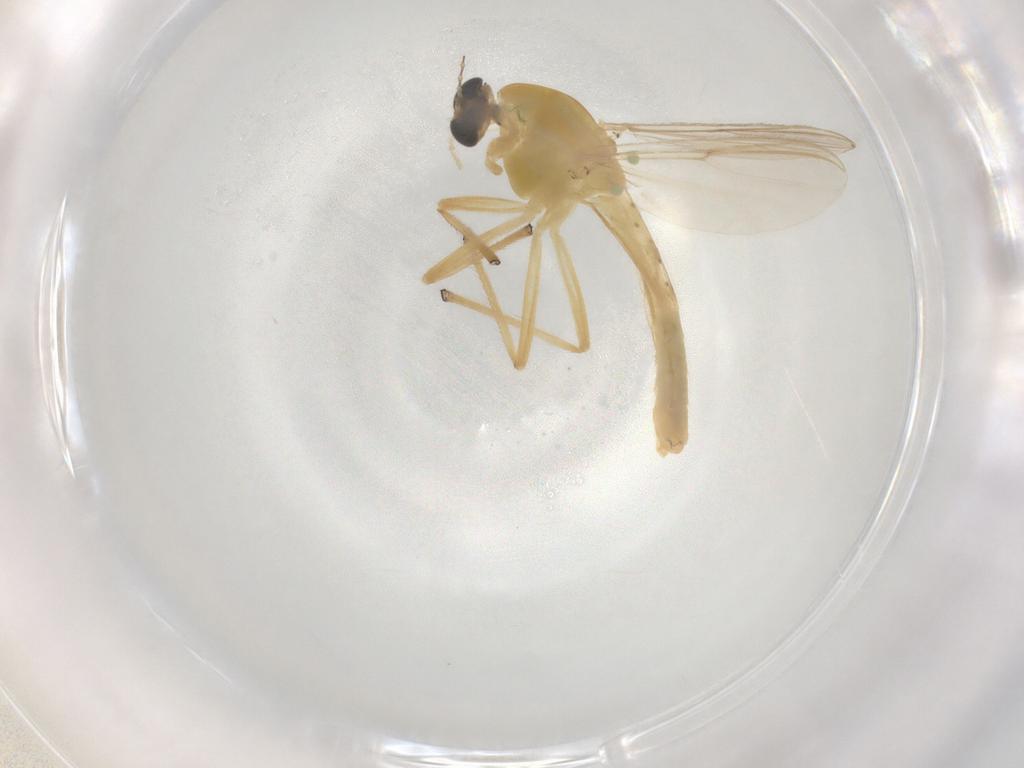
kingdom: Animalia
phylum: Arthropoda
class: Insecta
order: Diptera
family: Chironomidae
